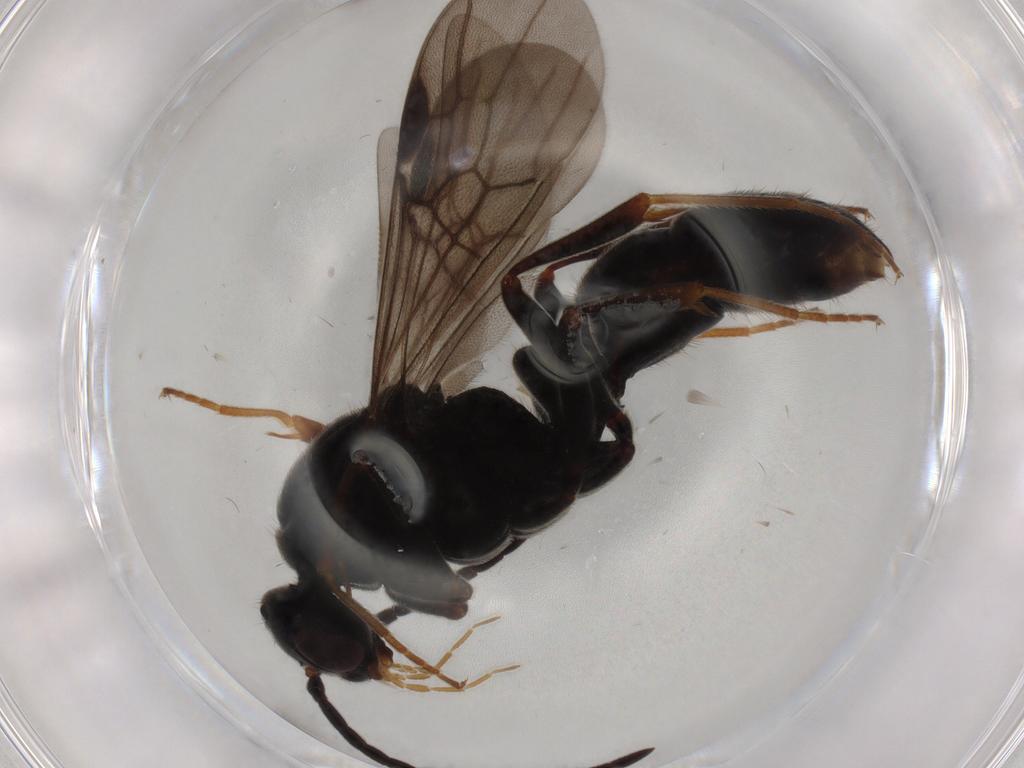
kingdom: Animalia
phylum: Arthropoda
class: Insecta
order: Hymenoptera
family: Formicidae
